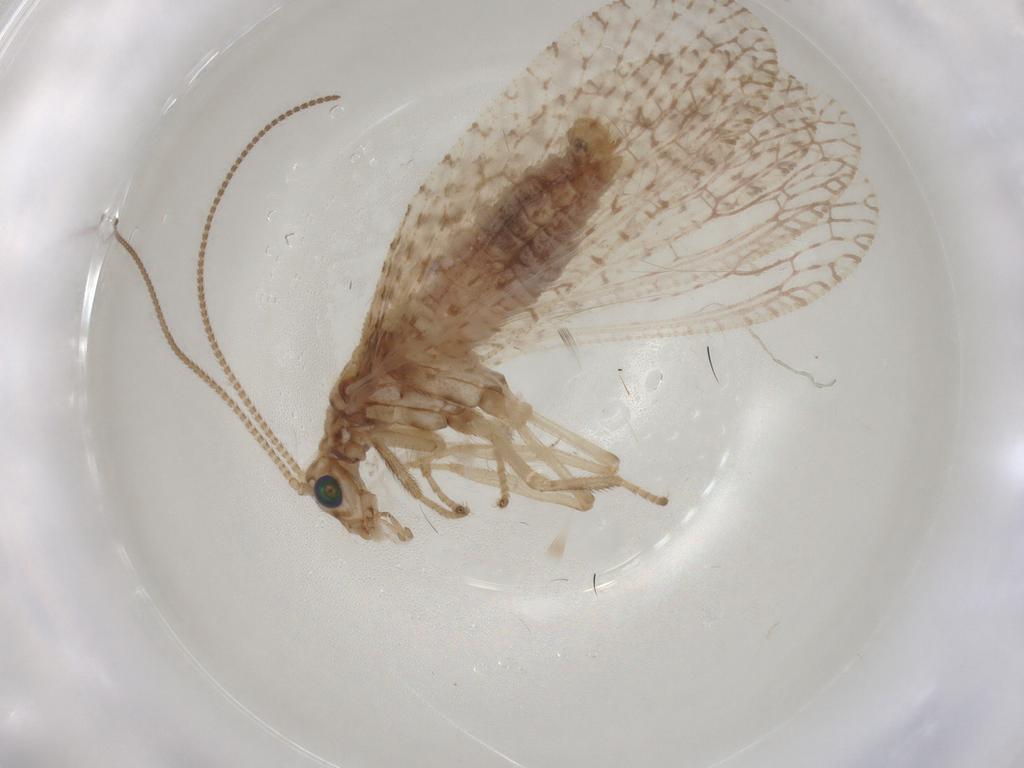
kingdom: Animalia
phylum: Arthropoda
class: Insecta
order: Neuroptera
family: Hemerobiidae
